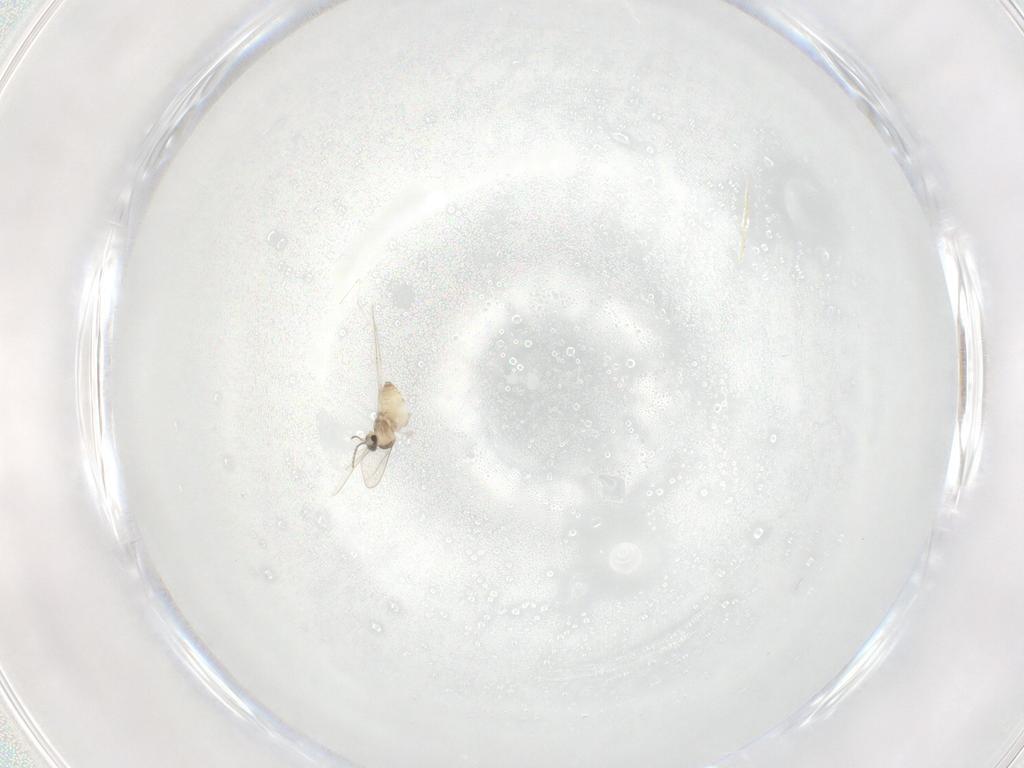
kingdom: Animalia
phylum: Arthropoda
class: Insecta
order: Diptera
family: Cecidomyiidae
